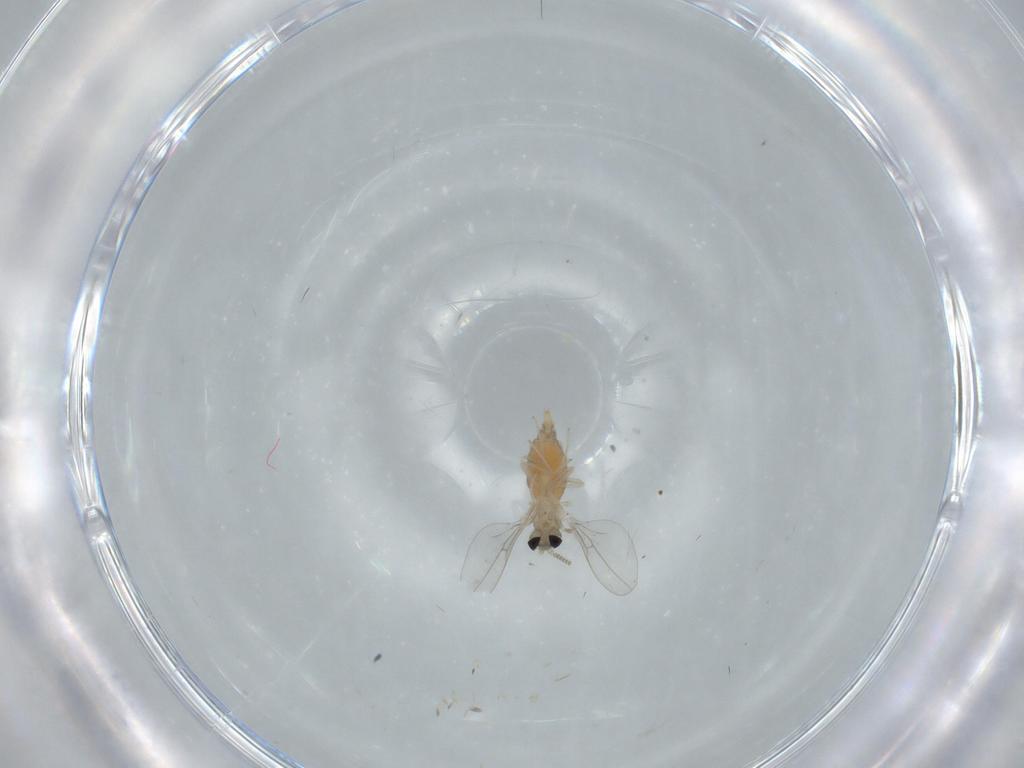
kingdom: Animalia
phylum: Arthropoda
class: Insecta
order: Diptera
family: Cecidomyiidae
